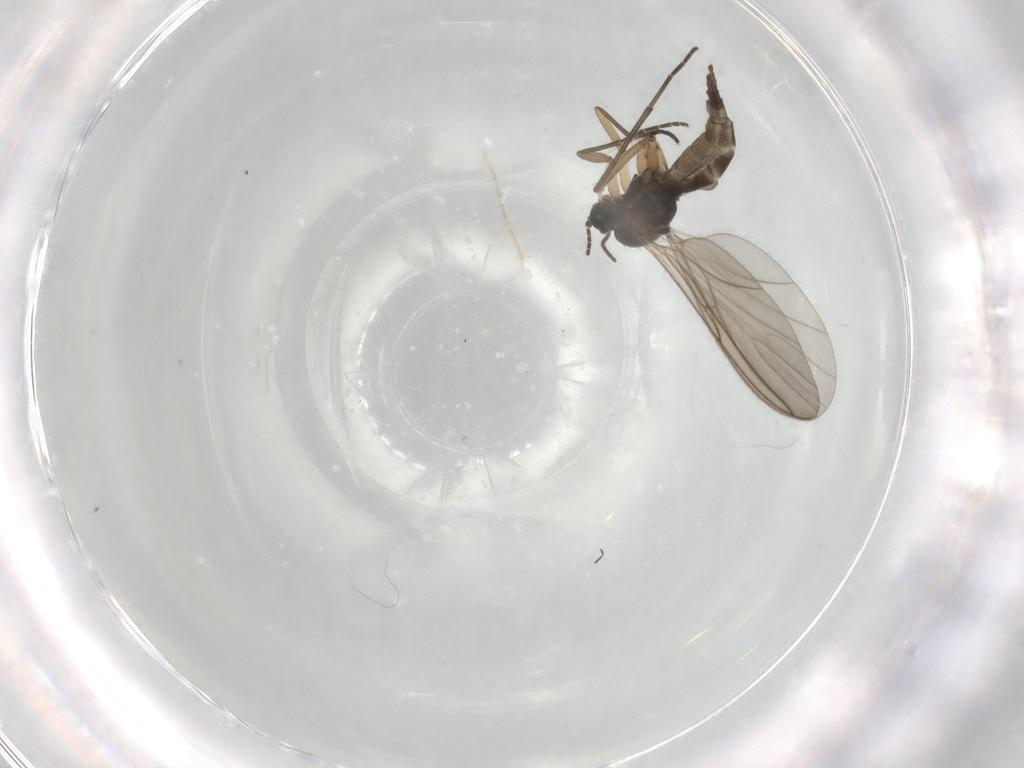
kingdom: Animalia
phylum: Arthropoda
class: Insecta
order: Diptera
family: Sciaridae
